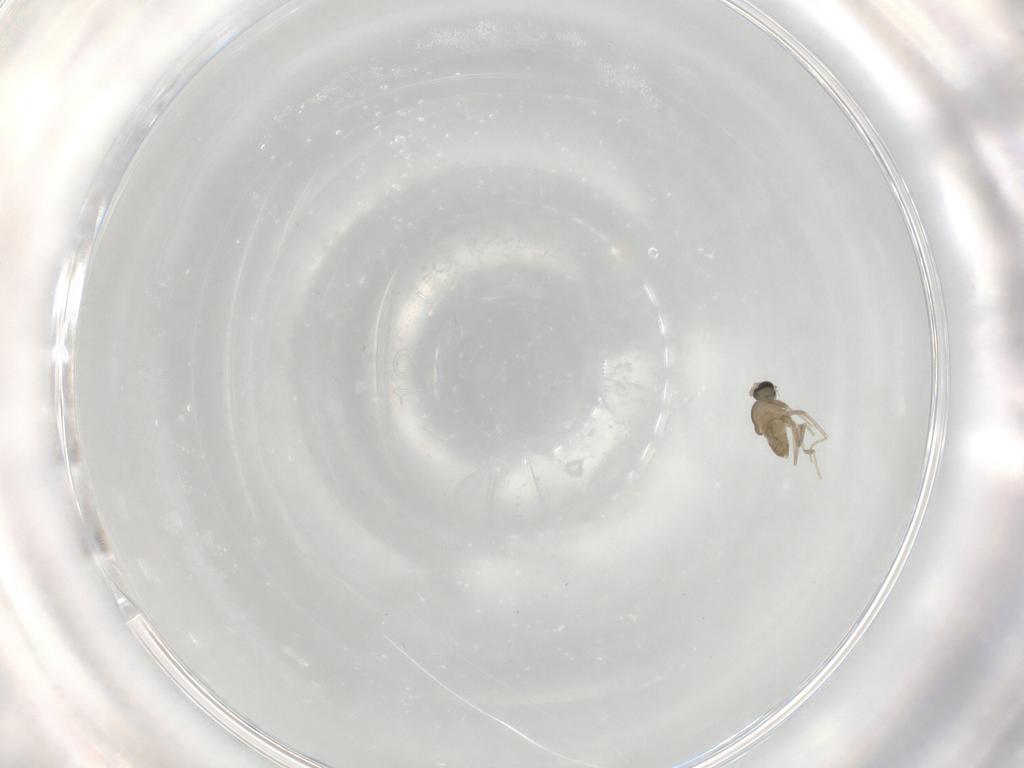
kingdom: Animalia
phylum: Arthropoda
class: Insecta
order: Diptera
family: Cecidomyiidae
